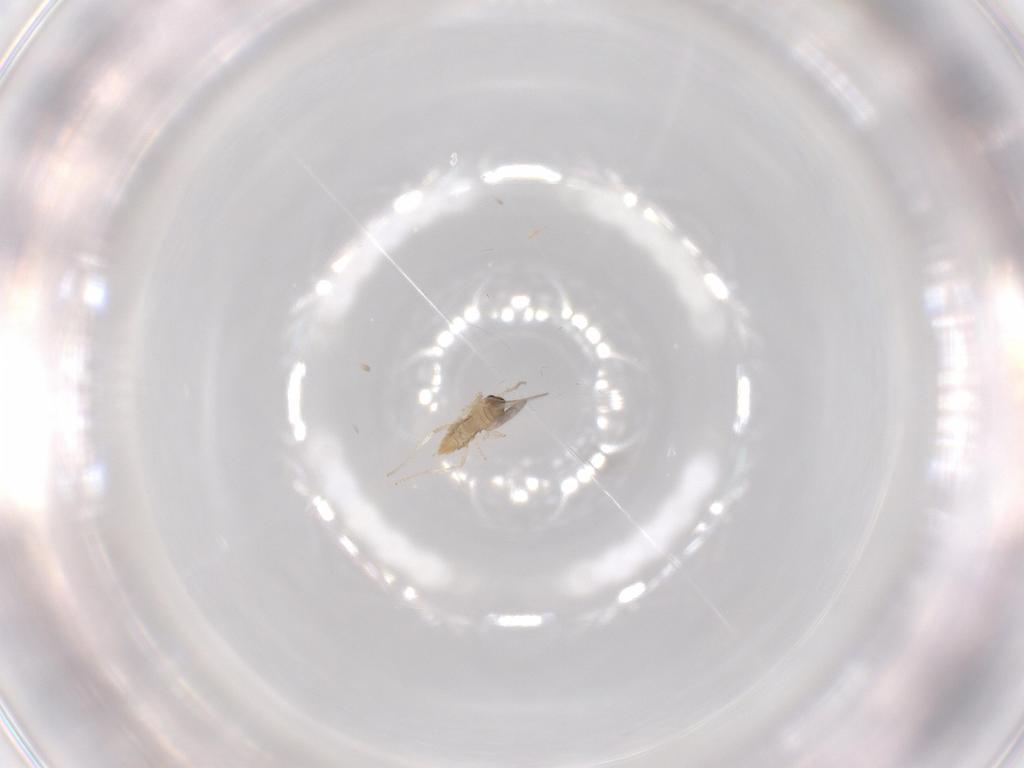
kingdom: Animalia
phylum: Arthropoda
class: Insecta
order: Diptera
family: Cecidomyiidae
